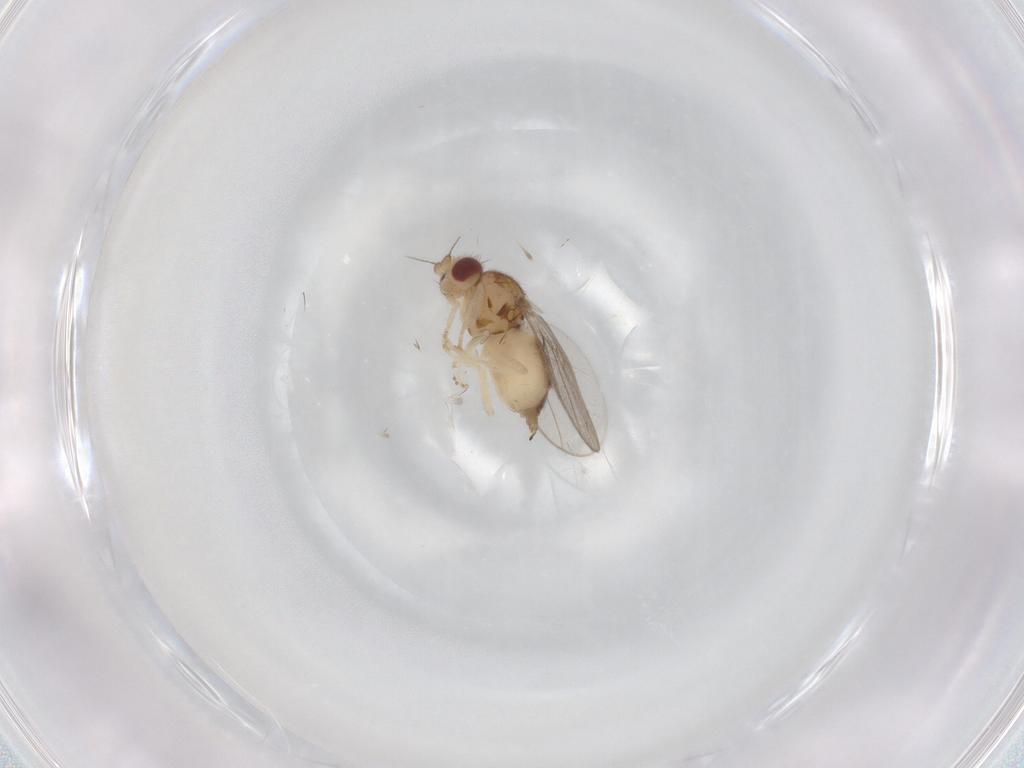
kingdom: Animalia
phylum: Arthropoda
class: Insecta
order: Diptera
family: Chloropidae
